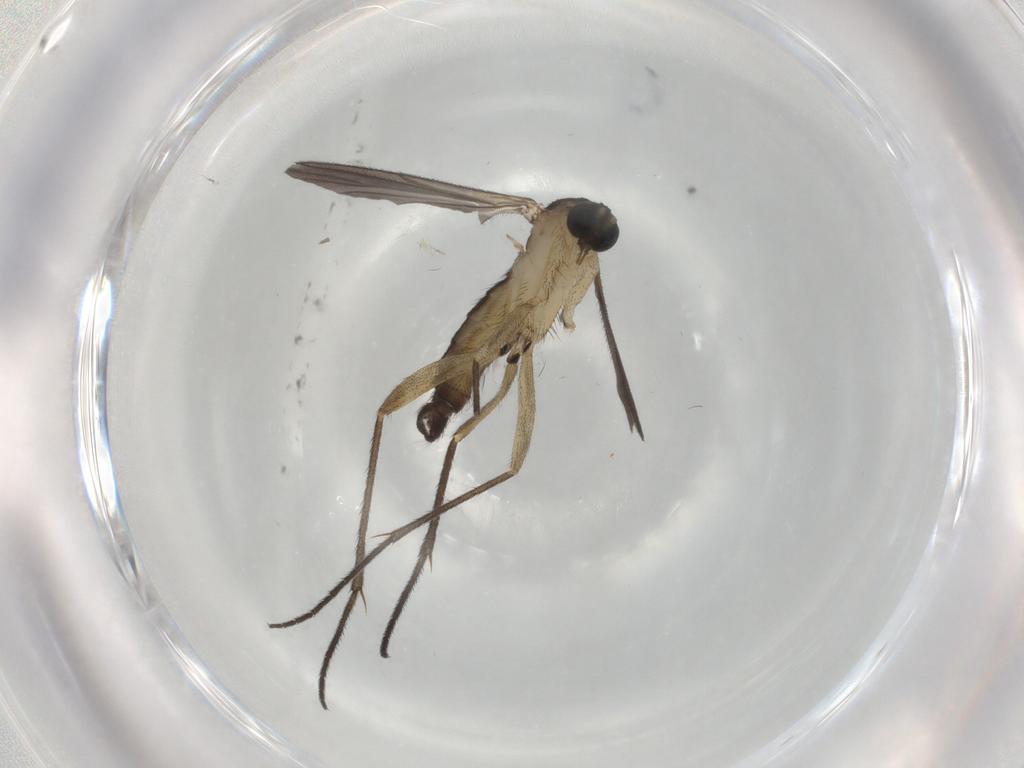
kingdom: Animalia
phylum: Arthropoda
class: Insecta
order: Diptera
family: Sciaridae
